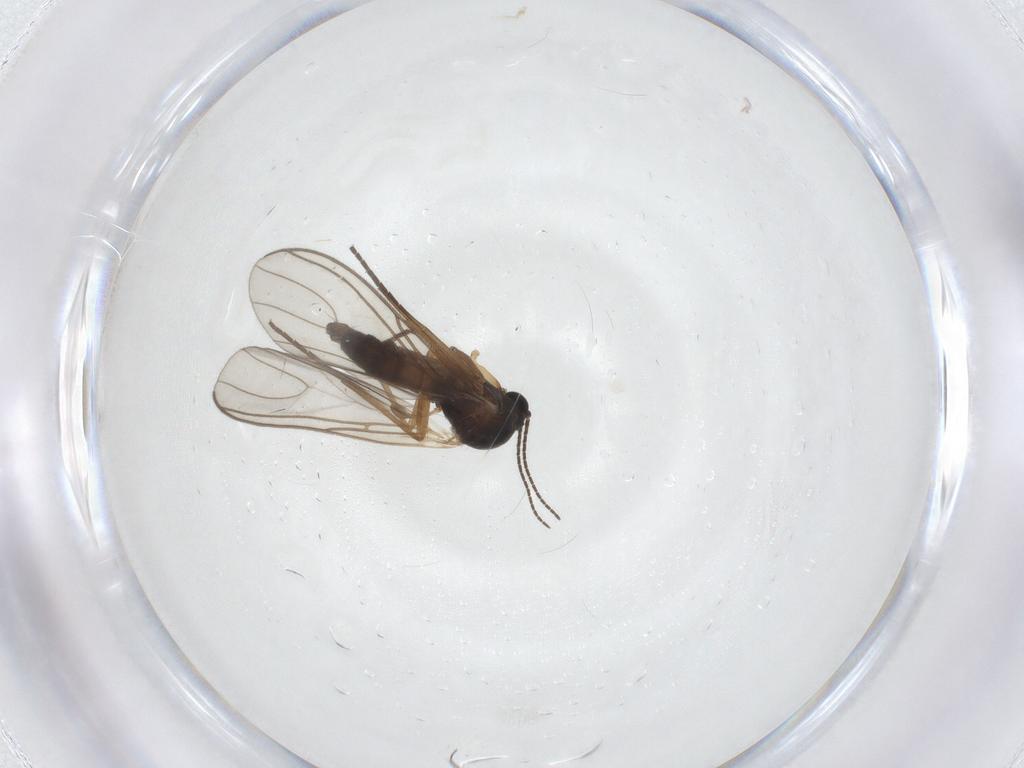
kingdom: Animalia
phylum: Arthropoda
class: Insecta
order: Diptera
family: Sciaridae
